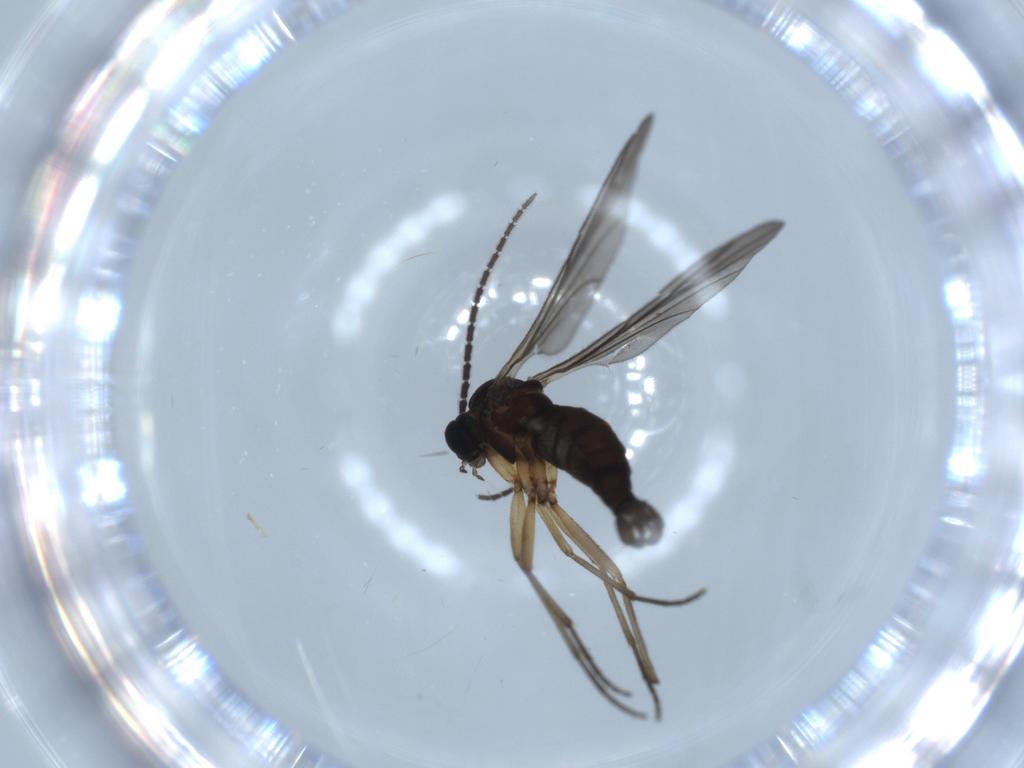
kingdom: Animalia
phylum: Arthropoda
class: Insecta
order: Diptera
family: Sciaridae
